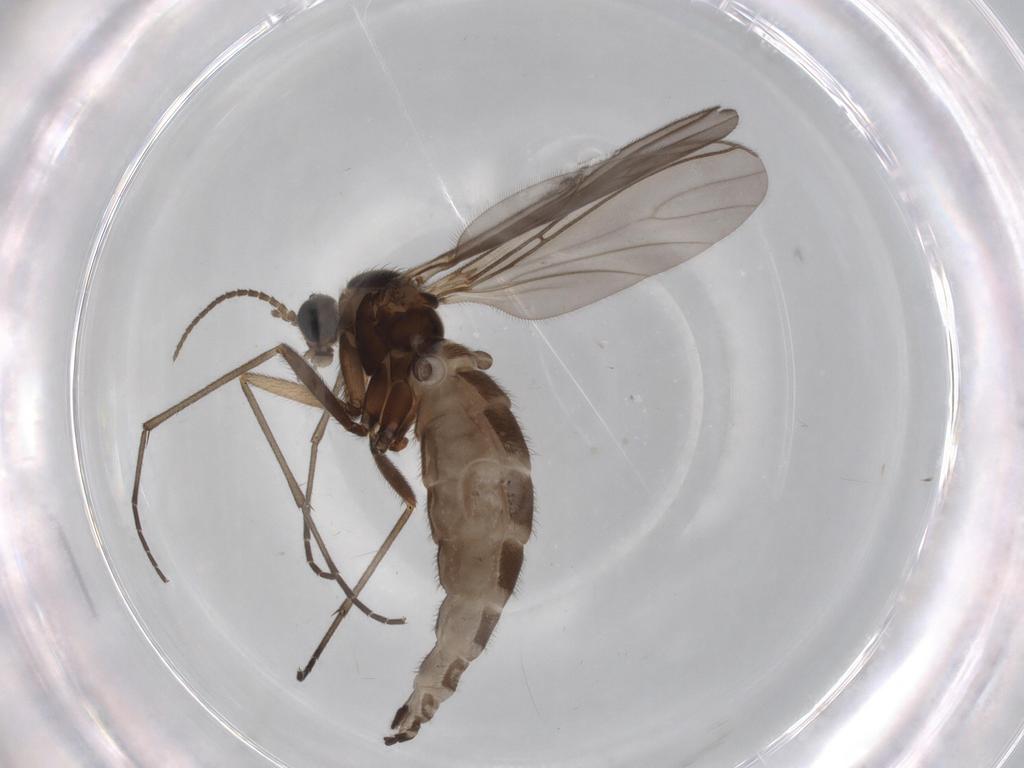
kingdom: Animalia
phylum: Arthropoda
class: Insecta
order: Diptera
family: Sciaridae
